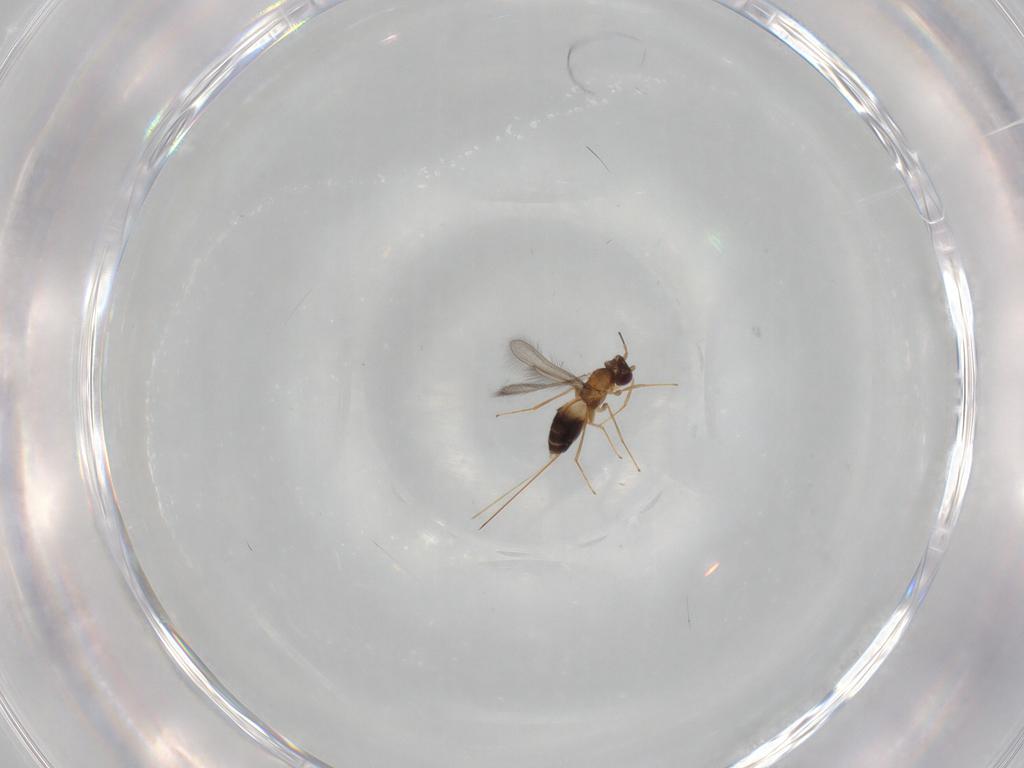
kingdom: Animalia
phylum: Arthropoda
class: Insecta
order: Hymenoptera
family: Mymaridae
